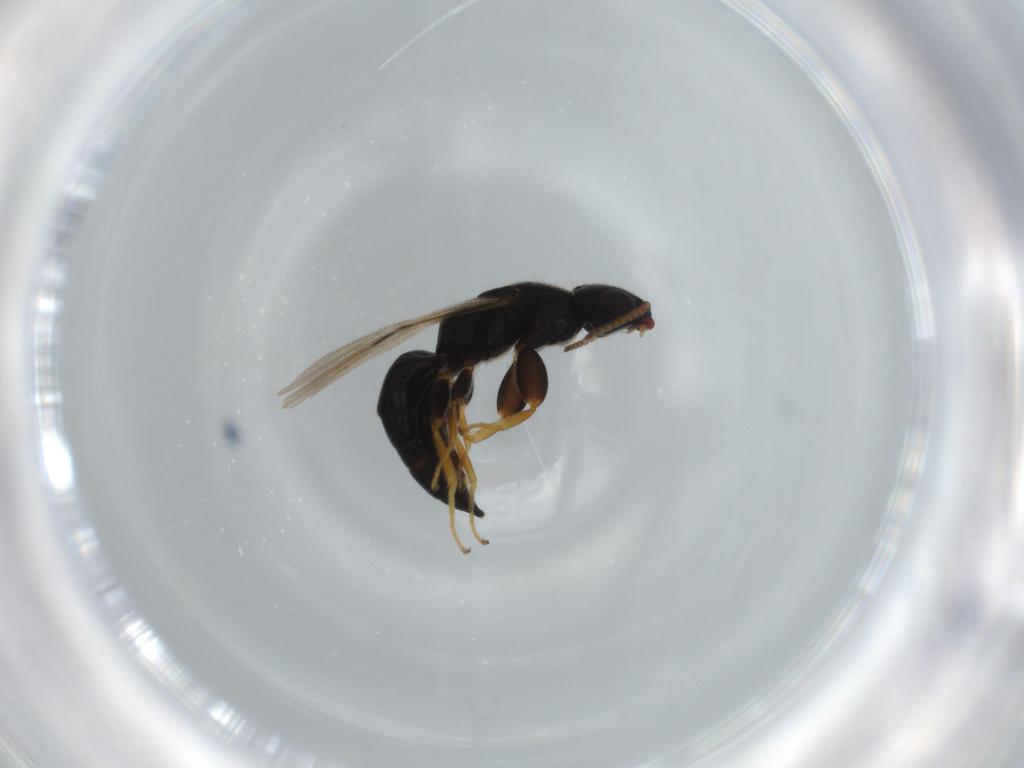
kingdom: Animalia
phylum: Arthropoda
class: Insecta
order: Hymenoptera
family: Bethylidae
